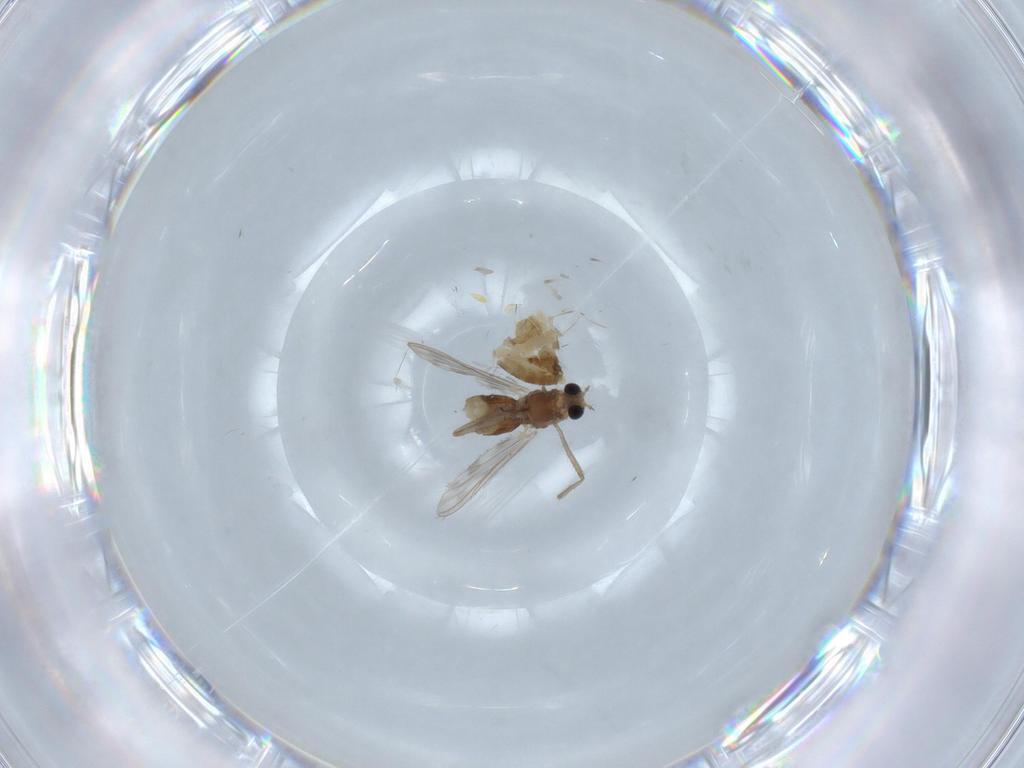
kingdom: Animalia
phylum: Arthropoda
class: Insecta
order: Diptera
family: Chironomidae
